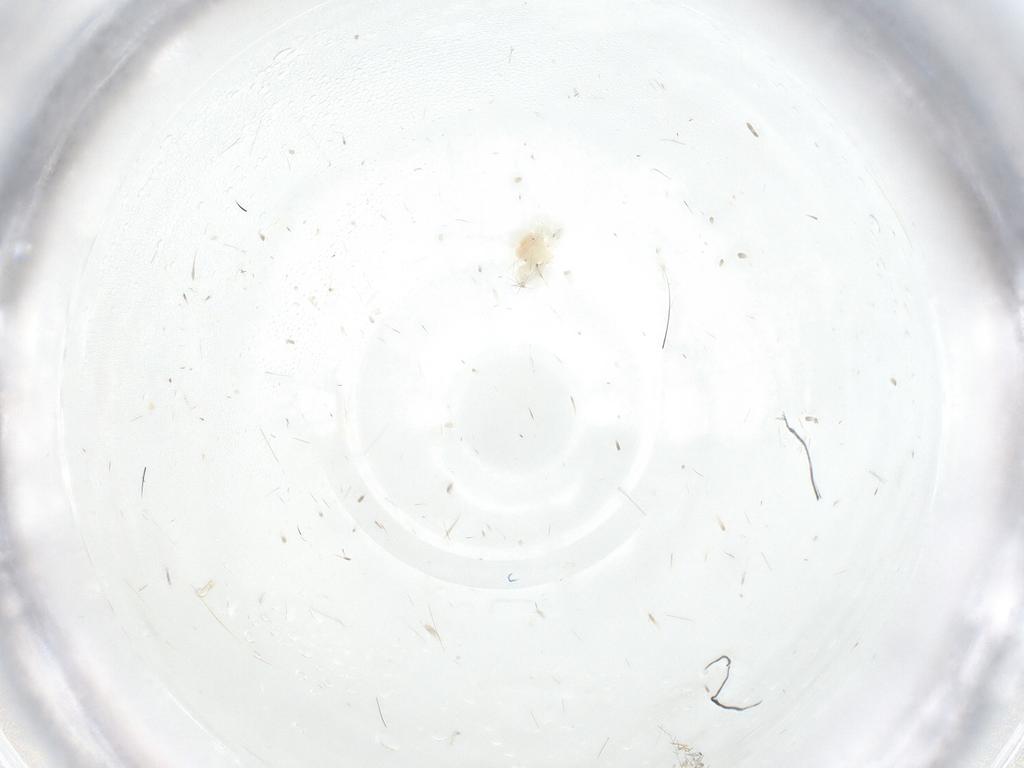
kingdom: Animalia
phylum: Arthropoda
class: Arachnida
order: Trombidiformes
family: Anystidae
